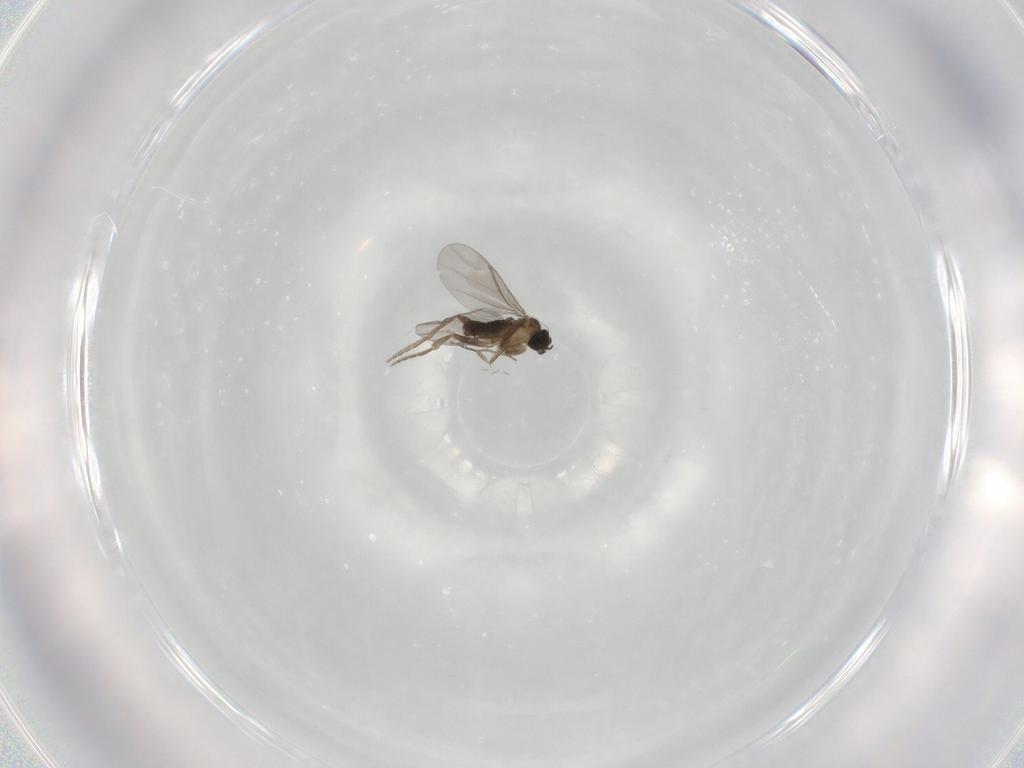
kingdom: Animalia
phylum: Arthropoda
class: Insecta
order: Diptera
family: Phoridae
